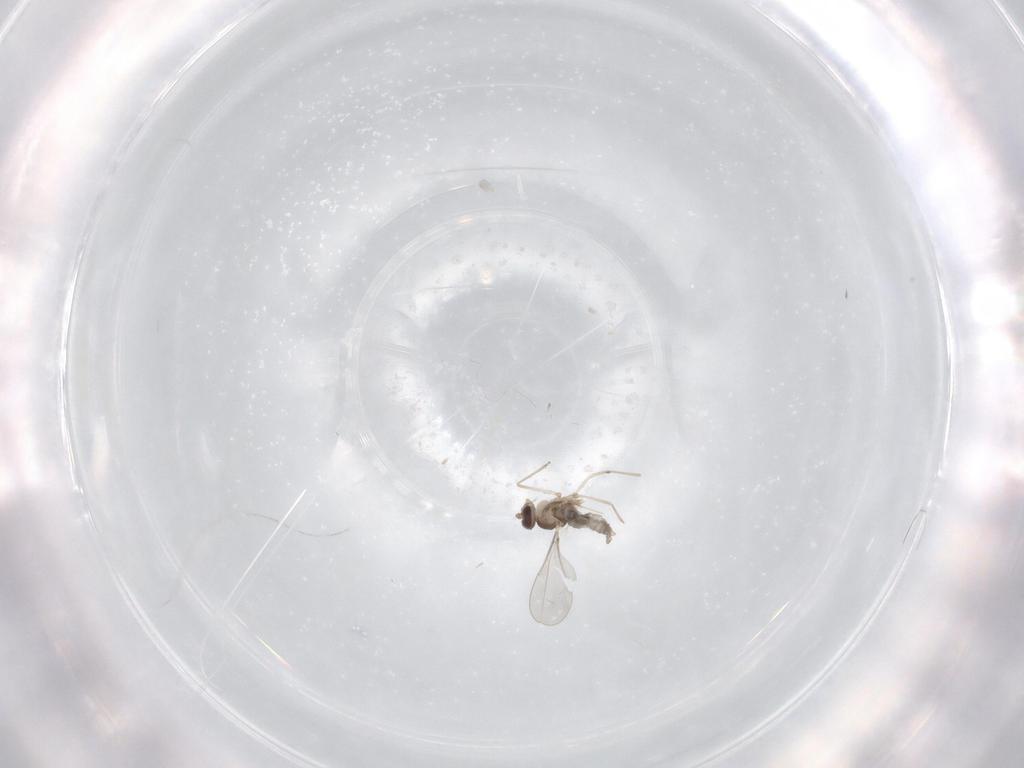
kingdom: Animalia
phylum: Arthropoda
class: Insecta
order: Diptera
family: Cecidomyiidae
